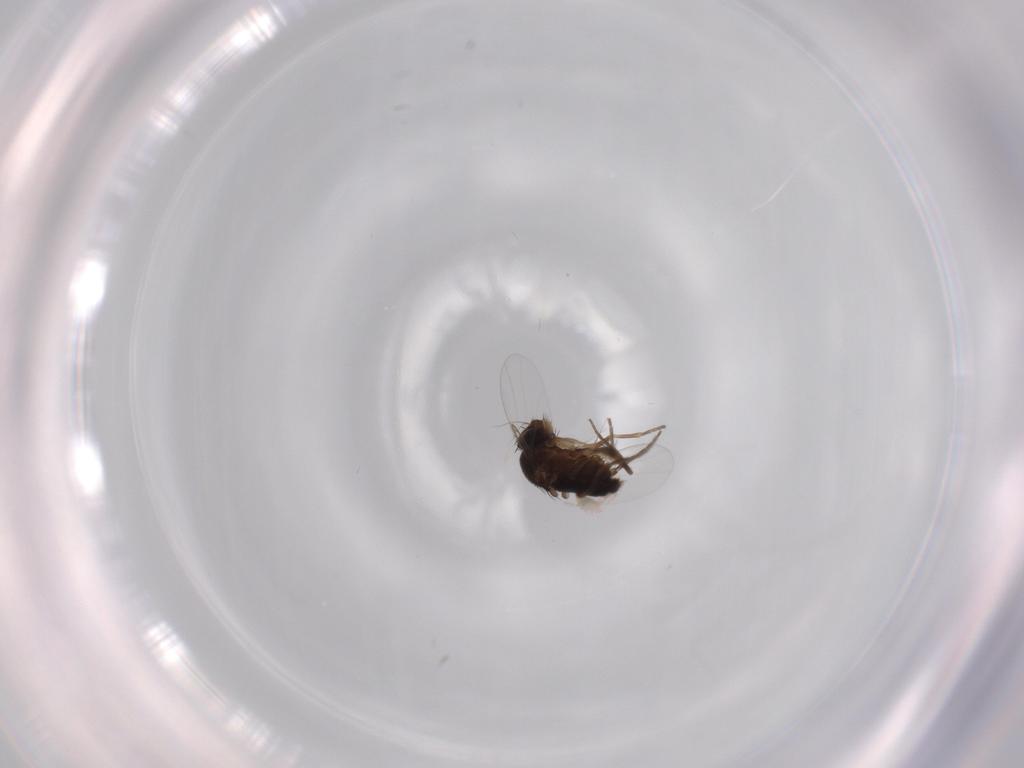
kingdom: Animalia
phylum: Arthropoda
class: Insecta
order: Diptera
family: Phoridae
